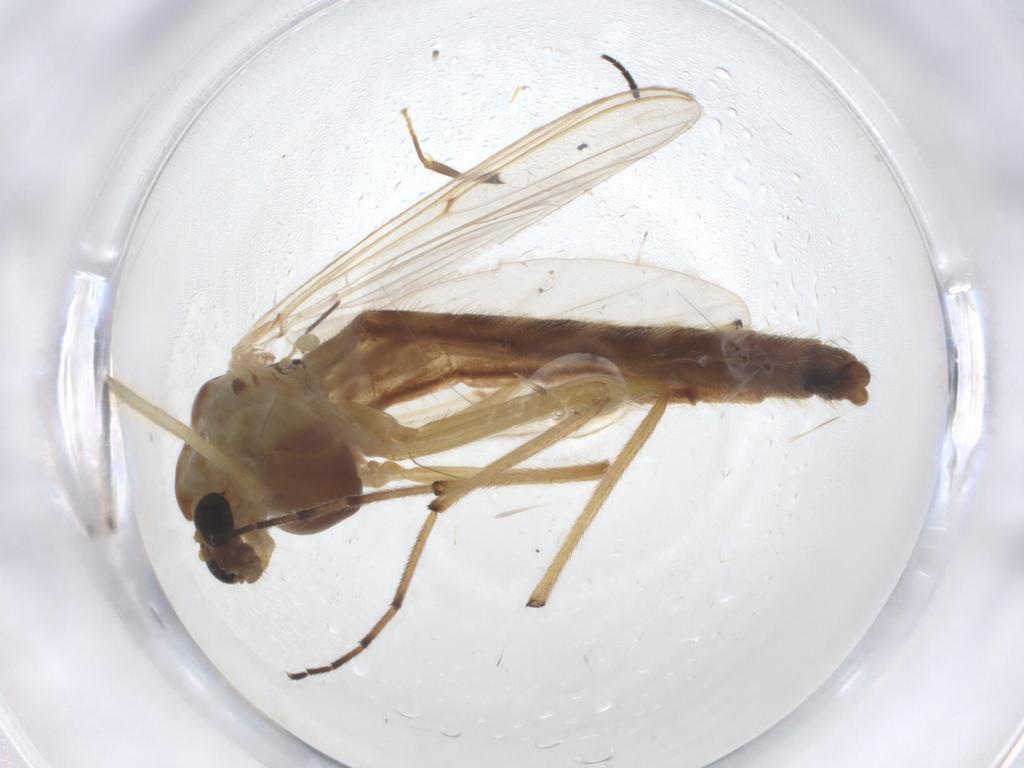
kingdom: Animalia
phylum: Arthropoda
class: Insecta
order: Diptera
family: Chironomidae
